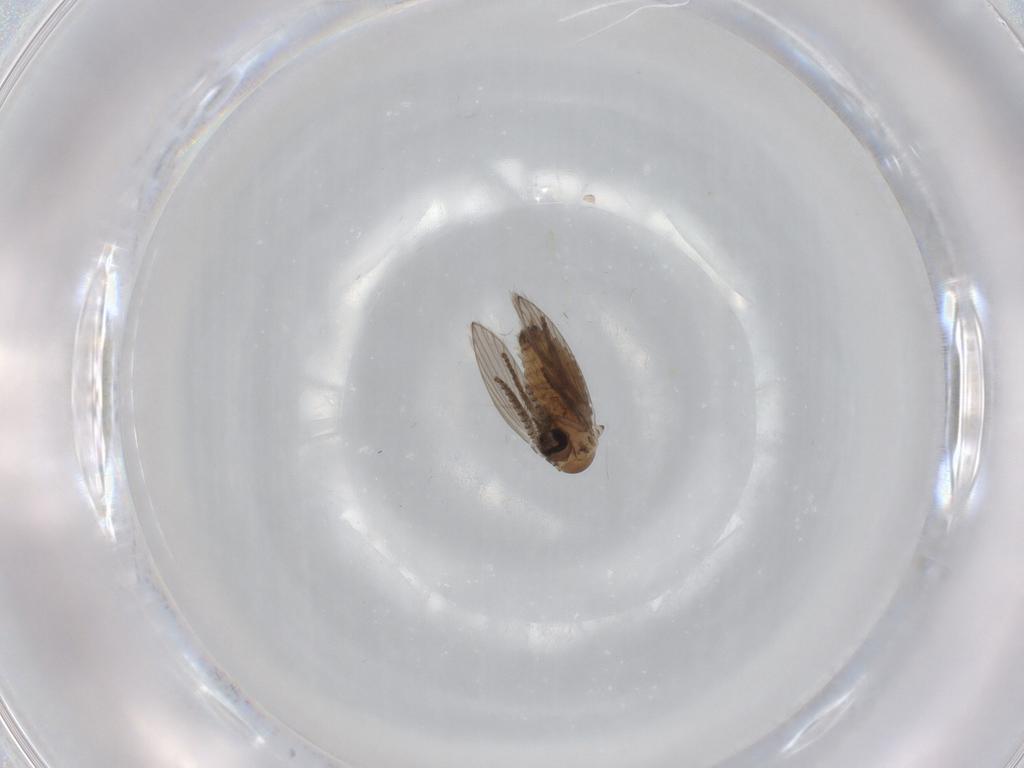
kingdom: Animalia
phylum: Arthropoda
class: Insecta
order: Diptera
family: Psychodidae
